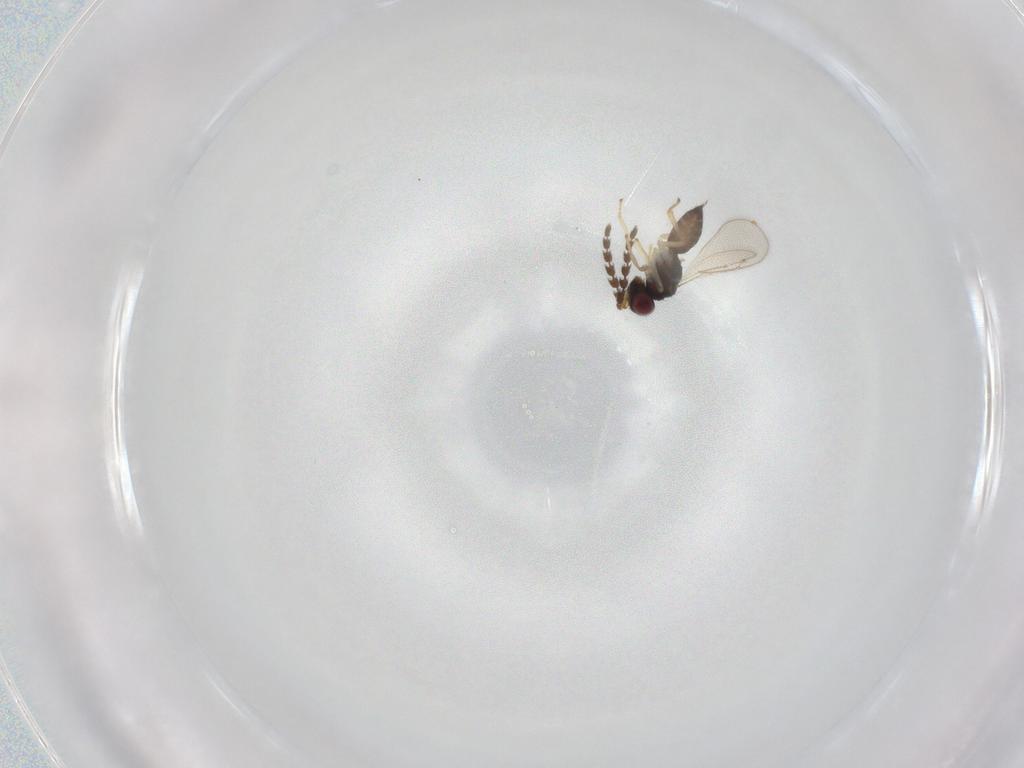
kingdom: Animalia
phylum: Arthropoda
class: Insecta
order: Hymenoptera
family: Eulophidae
